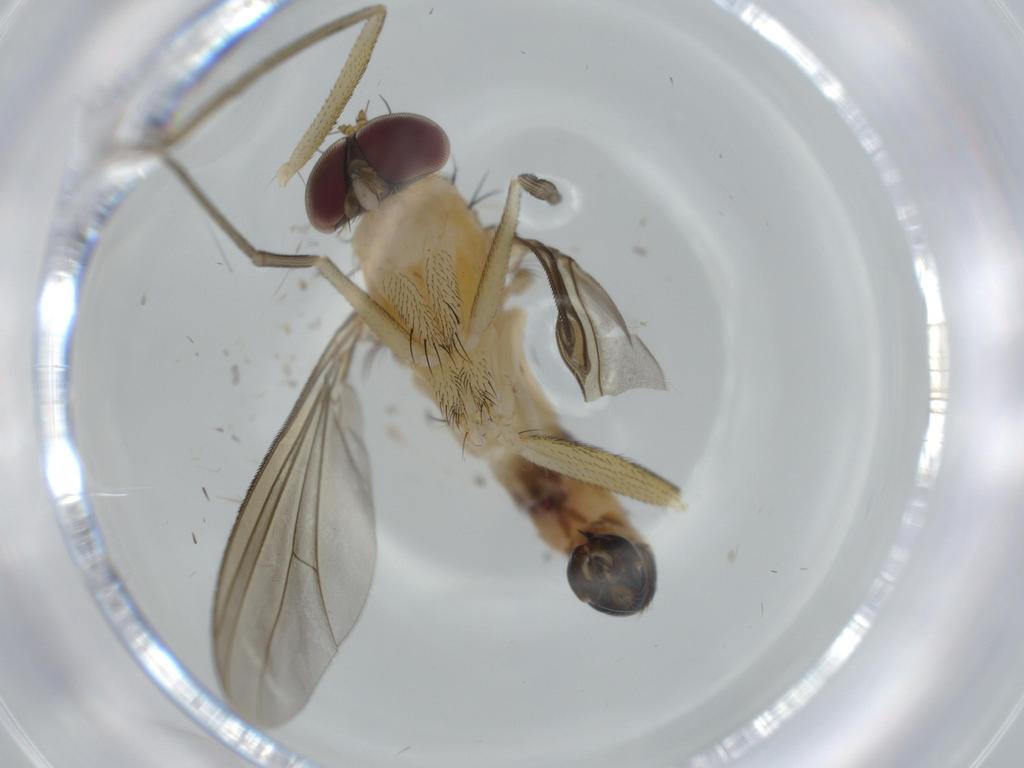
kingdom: Animalia
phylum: Arthropoda
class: Insecta
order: Diptera
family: Dolichopodidae
